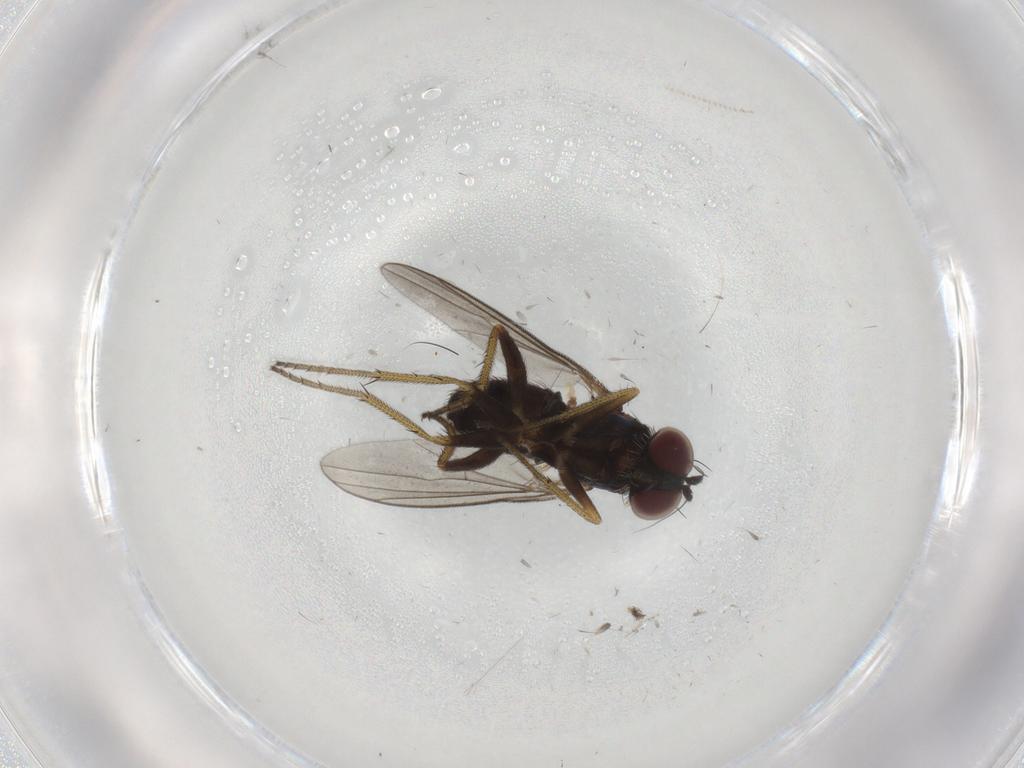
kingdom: Animalia
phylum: Arthropoda
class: Insecta
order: Diptera
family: Cecidomyiidae
